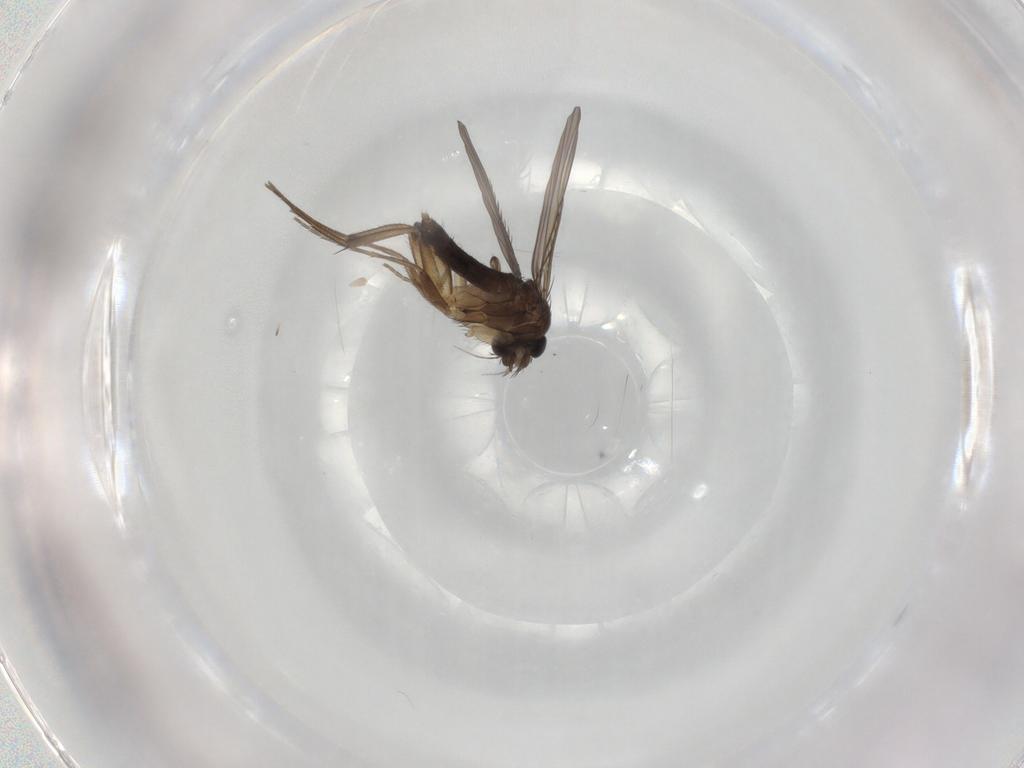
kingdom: Animalia
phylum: Arthropoda
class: Insecta
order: Diptera
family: Phoridae
